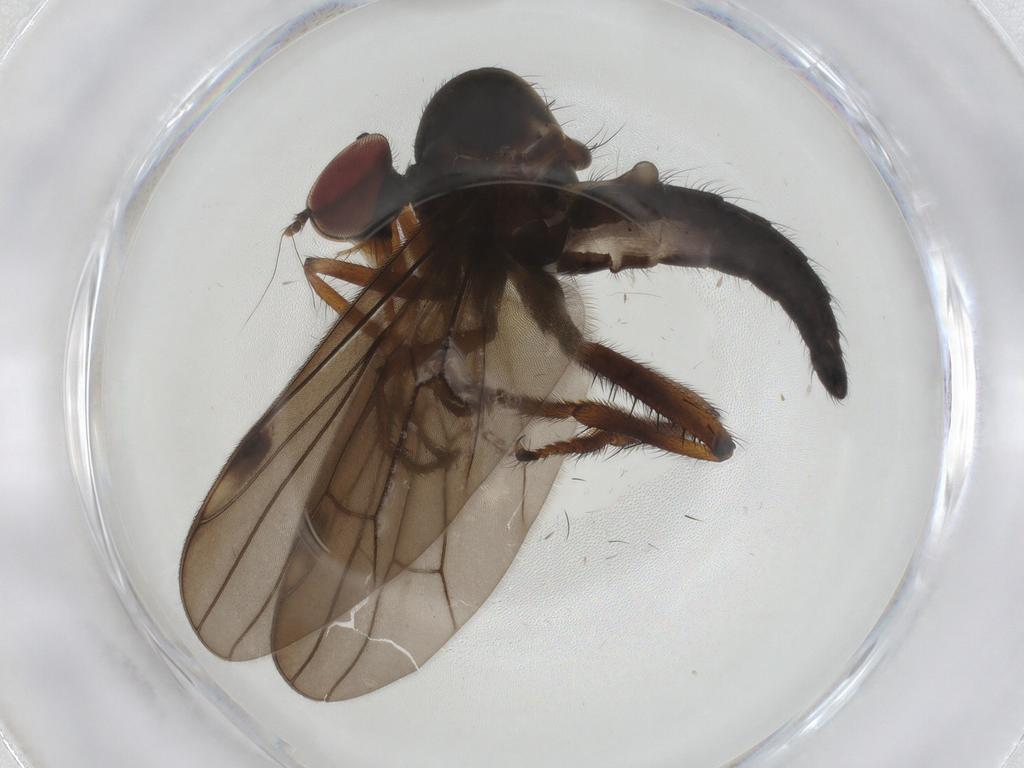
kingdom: Animalia
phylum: Arthropoda
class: Insecta
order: Diptera
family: Hybotidae
